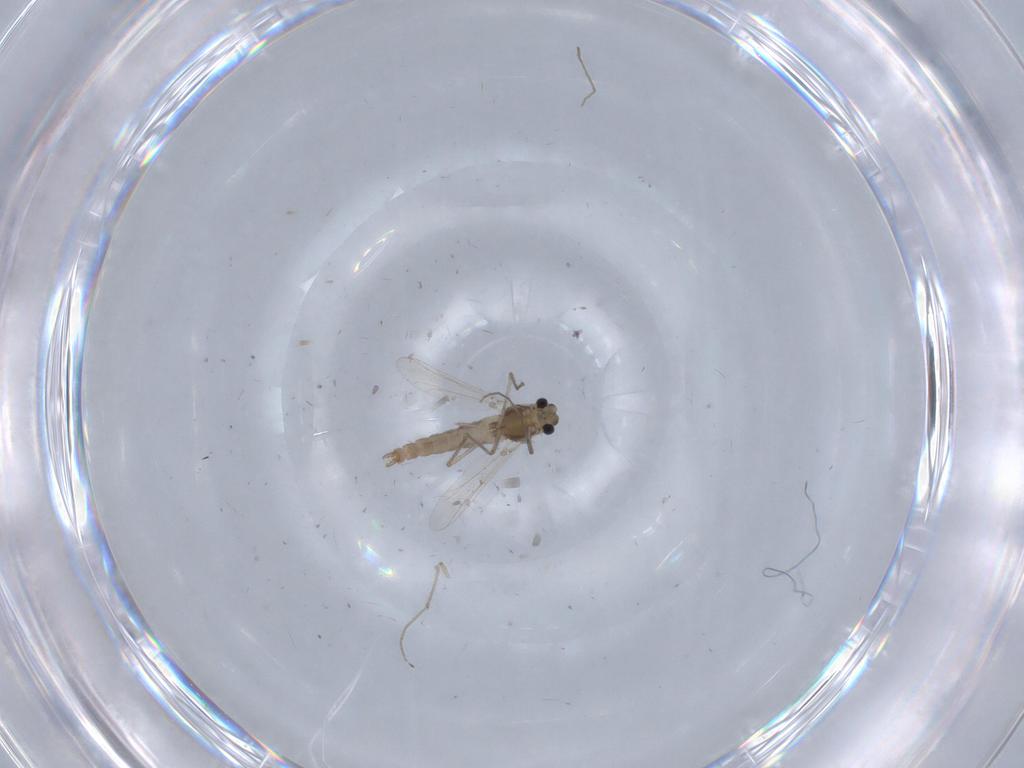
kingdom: Animalia
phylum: Arthropoda
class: Insecta
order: Diptera
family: Chironomidae
